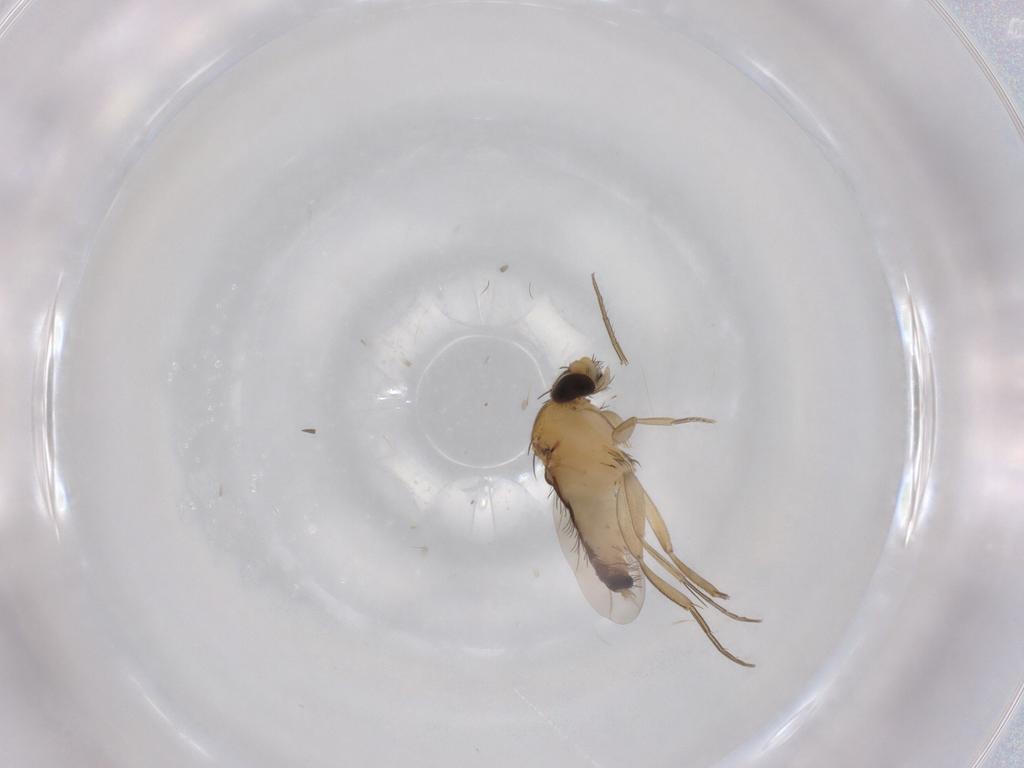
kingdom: Animalia
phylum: Arthropoda
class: Insecta
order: Diptera
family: Phoridae
